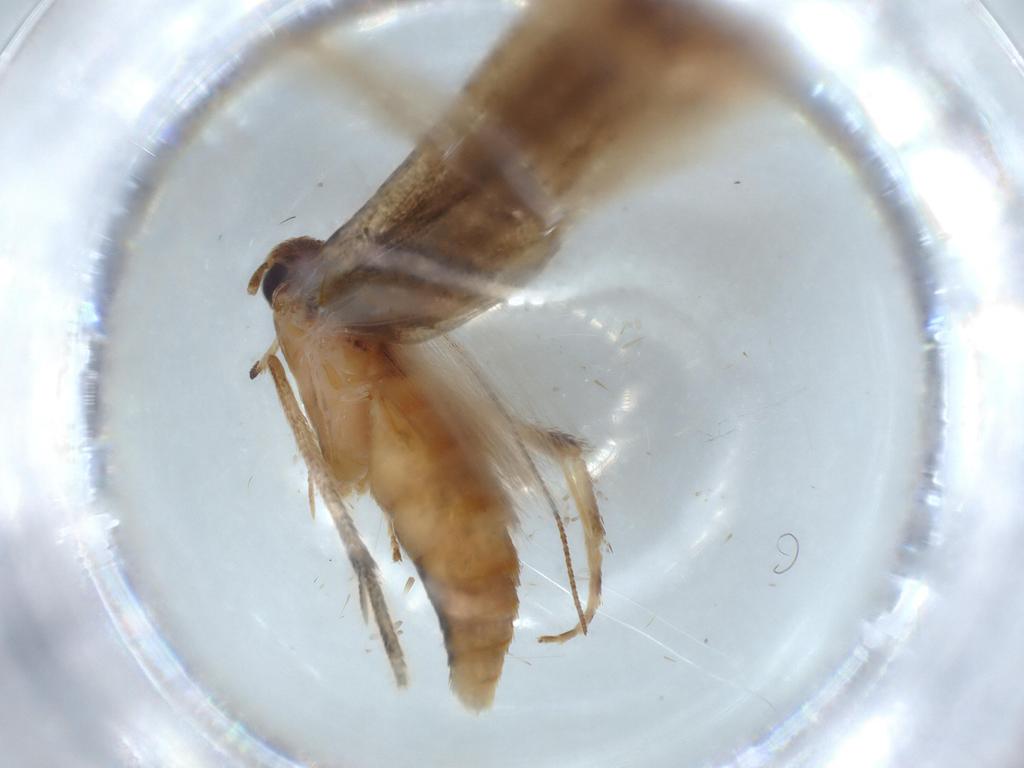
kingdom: Animalia
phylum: Arthropoda
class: Insecta
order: Lepidoptera
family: Stathmopodidae
